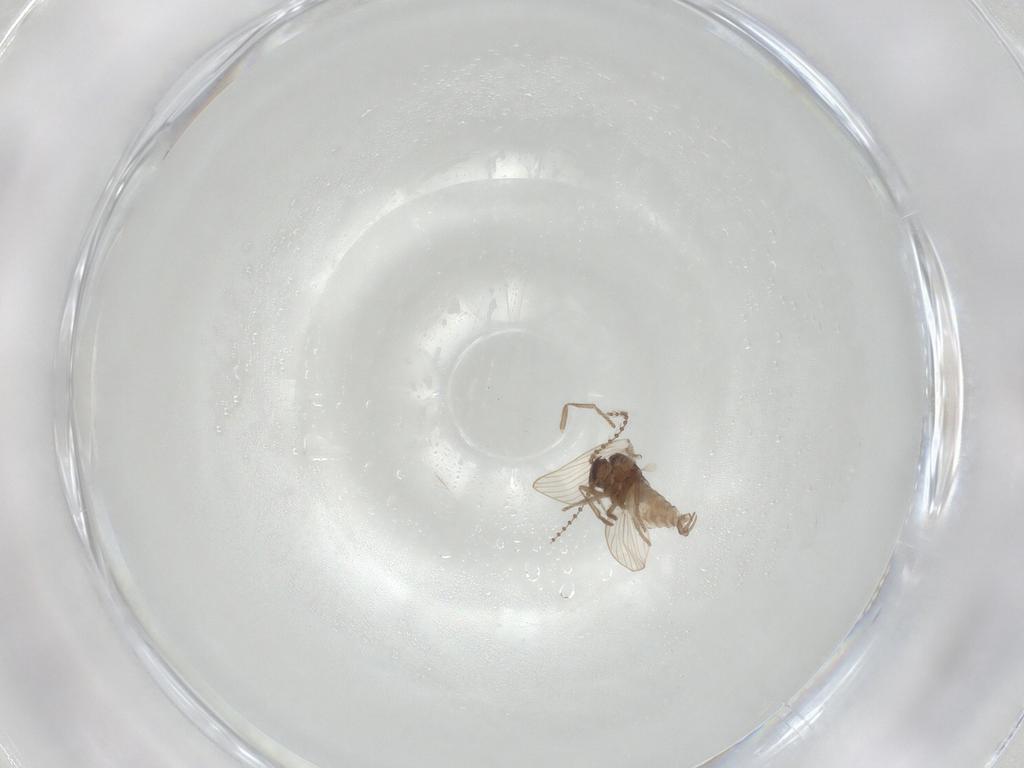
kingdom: Animalia
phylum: Arthropoda
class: Insecta
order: Diptera
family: Psychodidae
